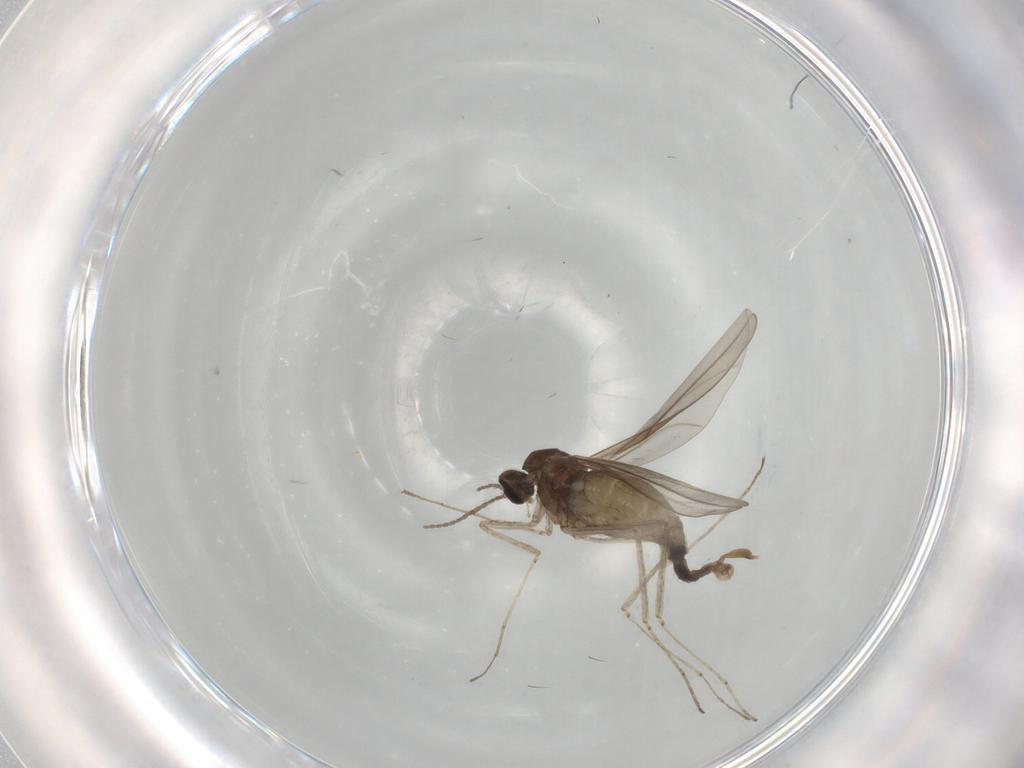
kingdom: Animalia
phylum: Arthropoda
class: Insecta
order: Diptera
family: Cecidomyiidae
